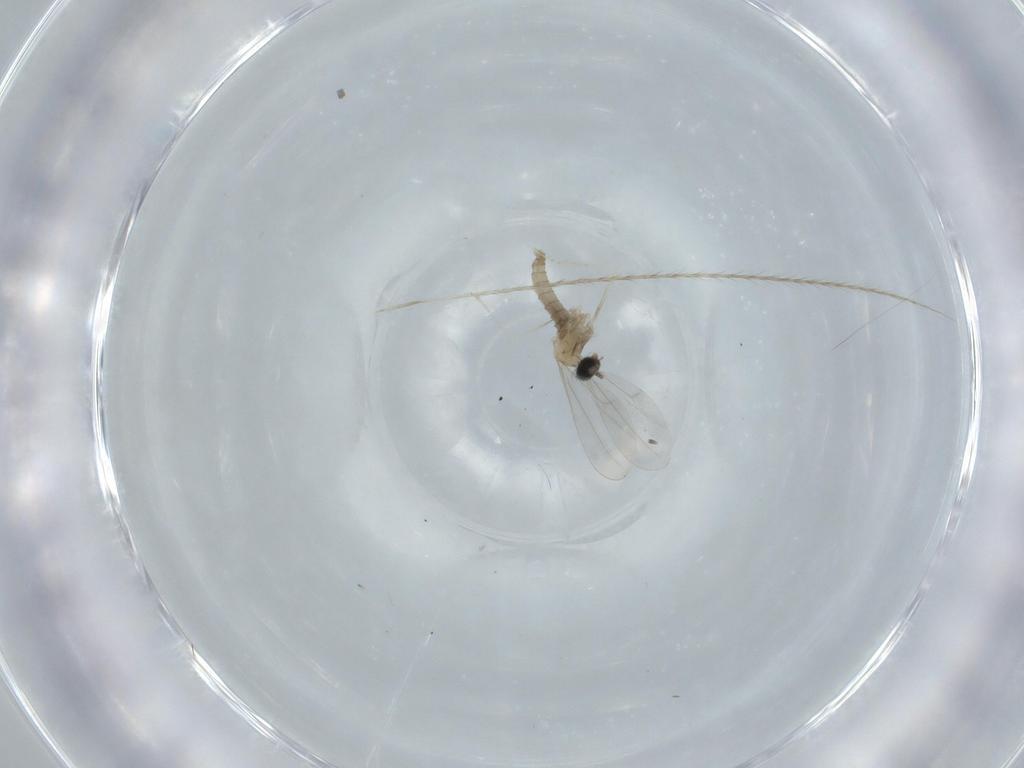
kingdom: Animalia
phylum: Arthropoda
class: Insecta
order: Diptera
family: Cecidomyiidae
